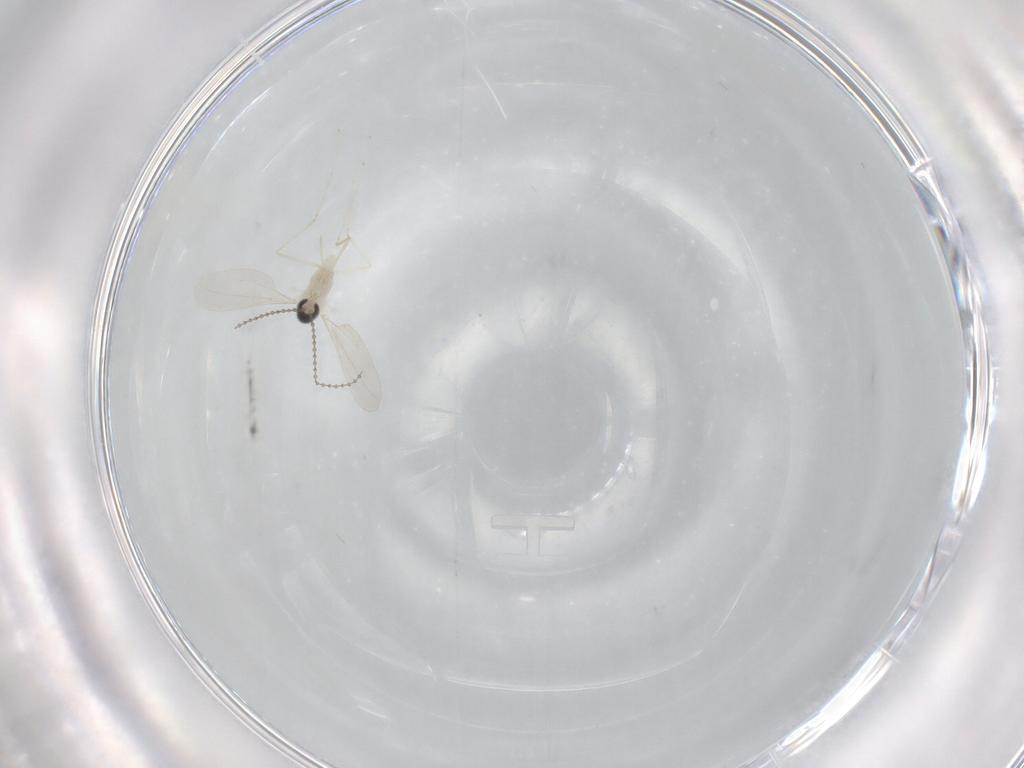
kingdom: Animalia
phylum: Arthropoda
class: Insecta
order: Diptera
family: Cecidomyiidae
